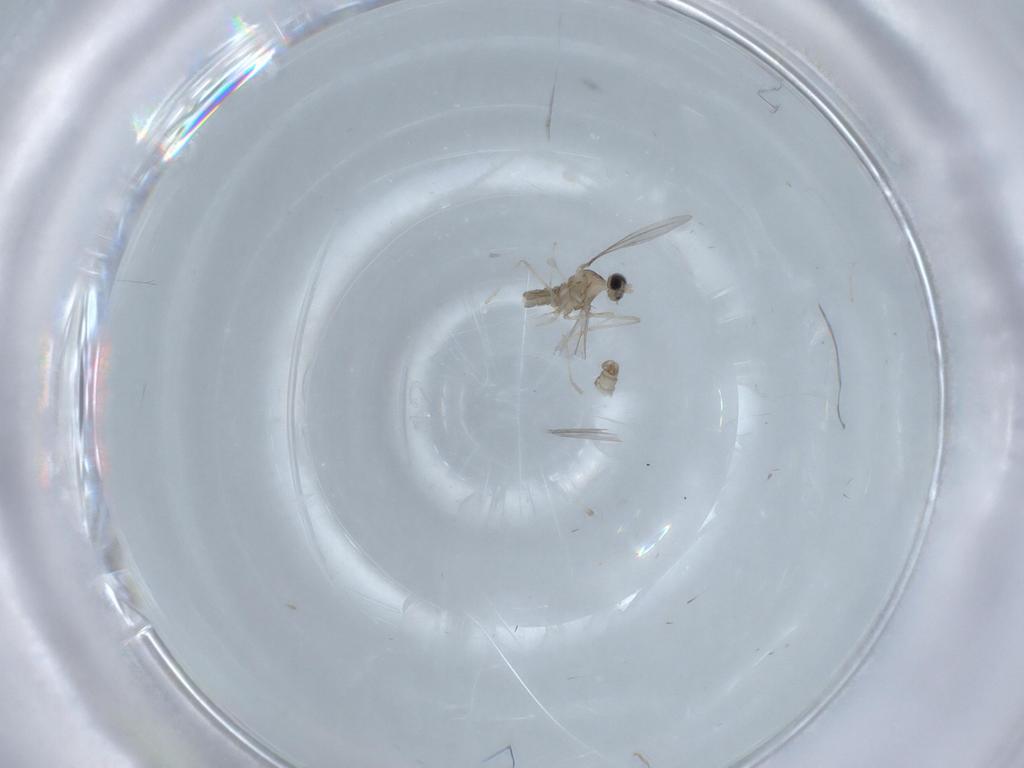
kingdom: Animalia
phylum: Arthropoda
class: Insecta
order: Diptera
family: Cecidomyiidae
